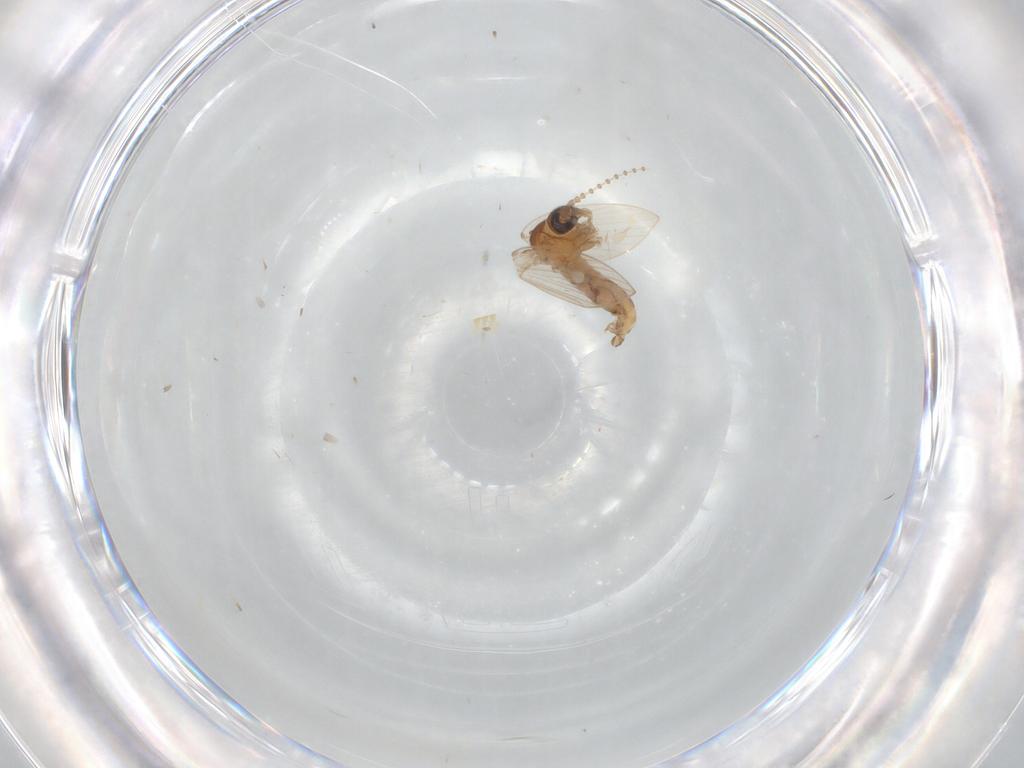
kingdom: Animalia
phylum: Arthropoda
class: Insecta
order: Diptera
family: Psychodidae
